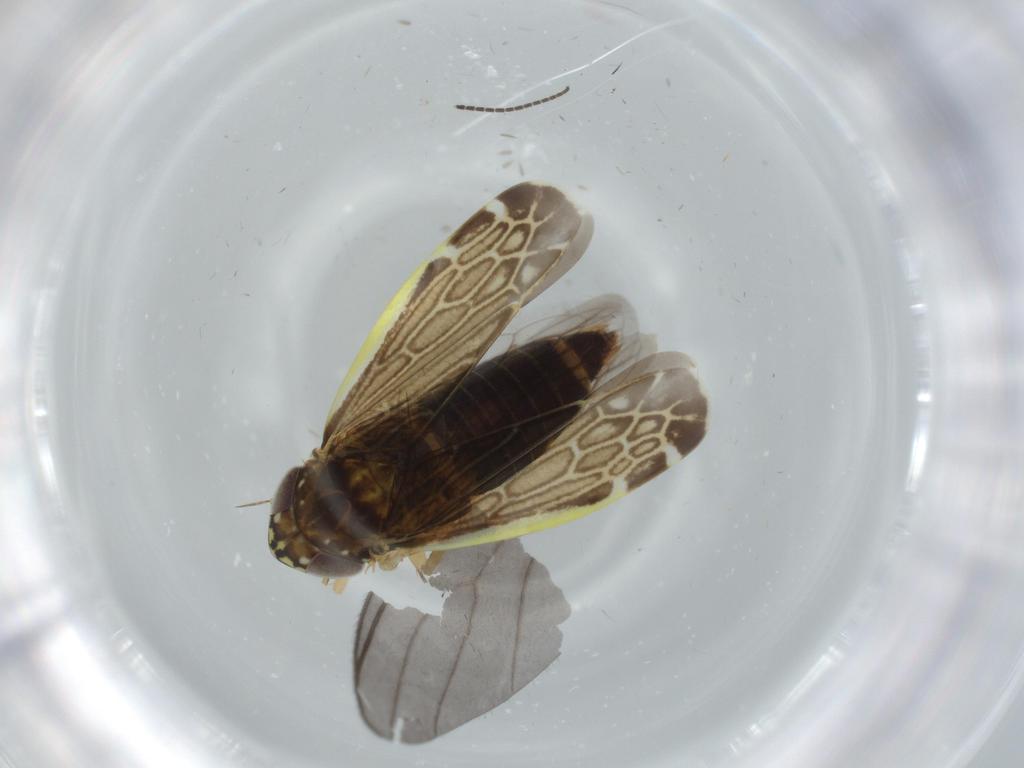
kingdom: Animalia
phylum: Arthropoda
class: Insecta
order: Hemiptera
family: Cicadellidae
